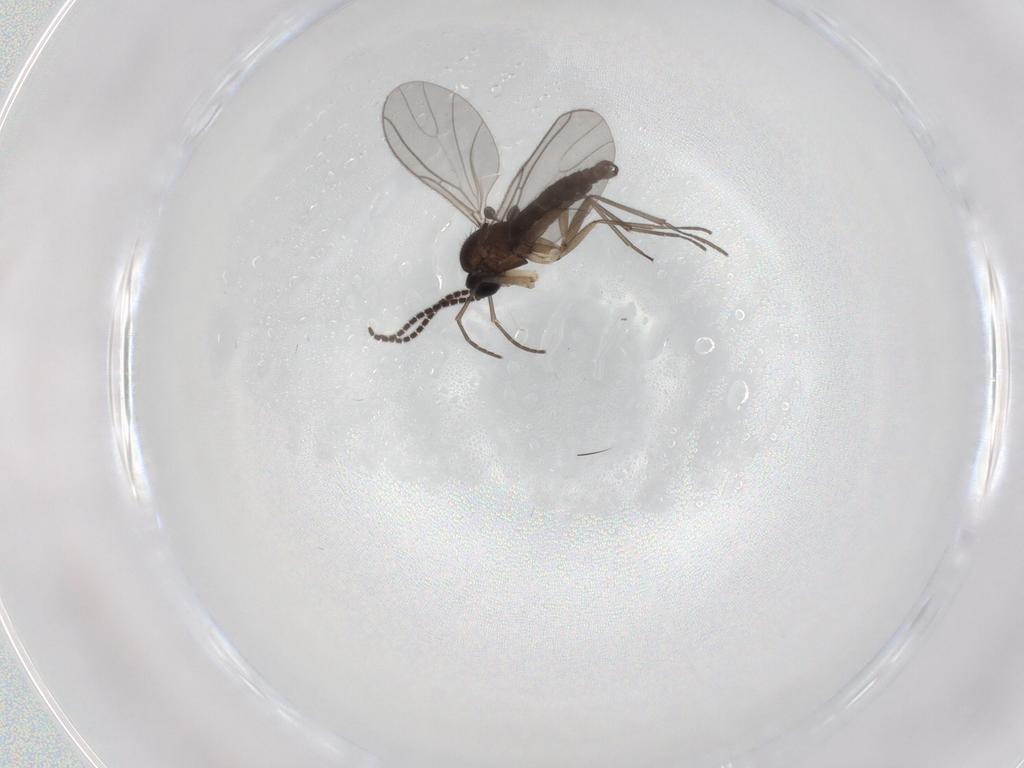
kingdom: Animalia
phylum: Arthropoda
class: Insecta
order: Diptera
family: Sciaridae
